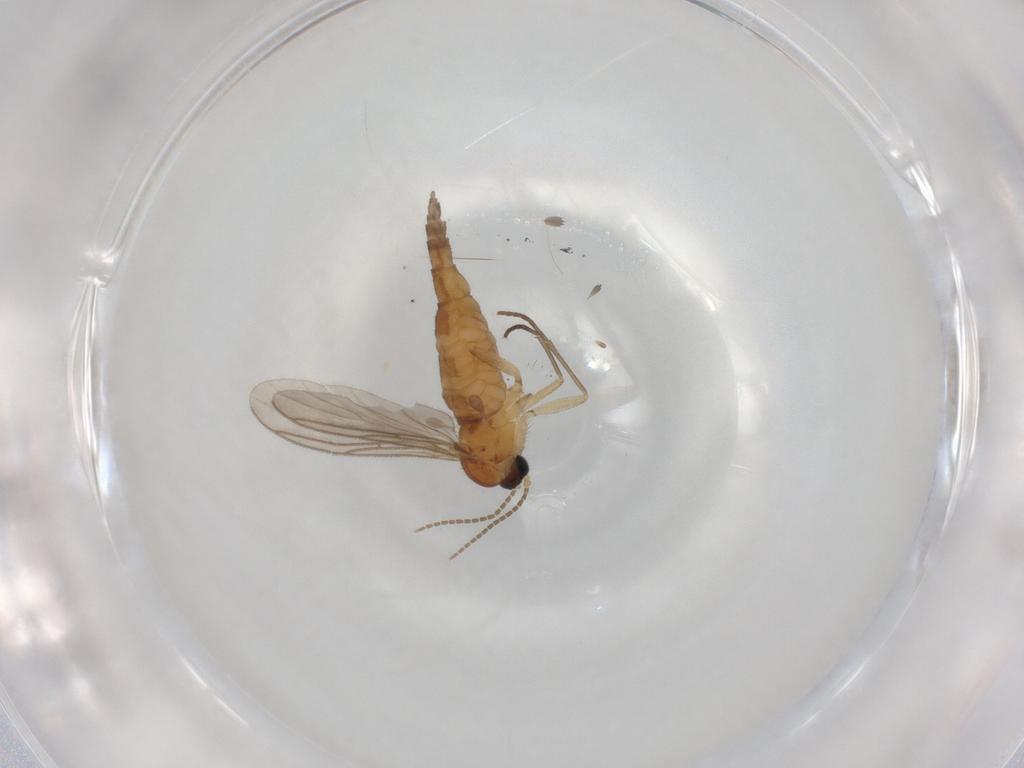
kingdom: Animalia
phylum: Arthropoda
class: Insecta
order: Diptera
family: Sciaridae
